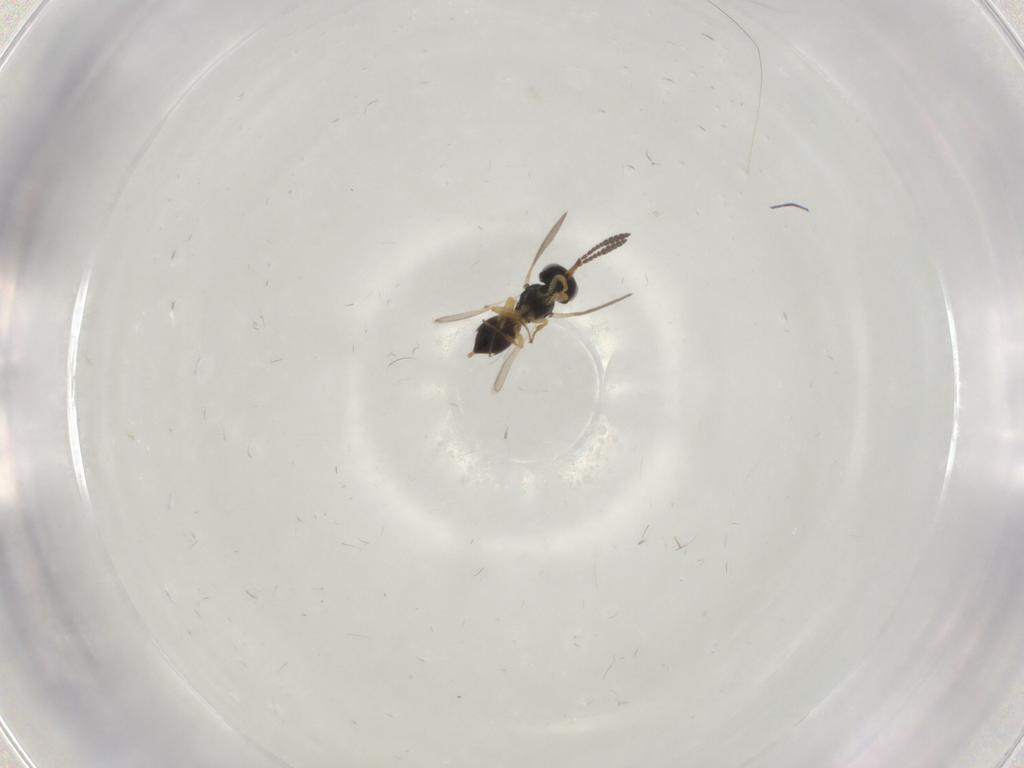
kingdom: Animalia
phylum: Arthropoda
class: Insecta
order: Hymenoptera
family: Scelionidae
